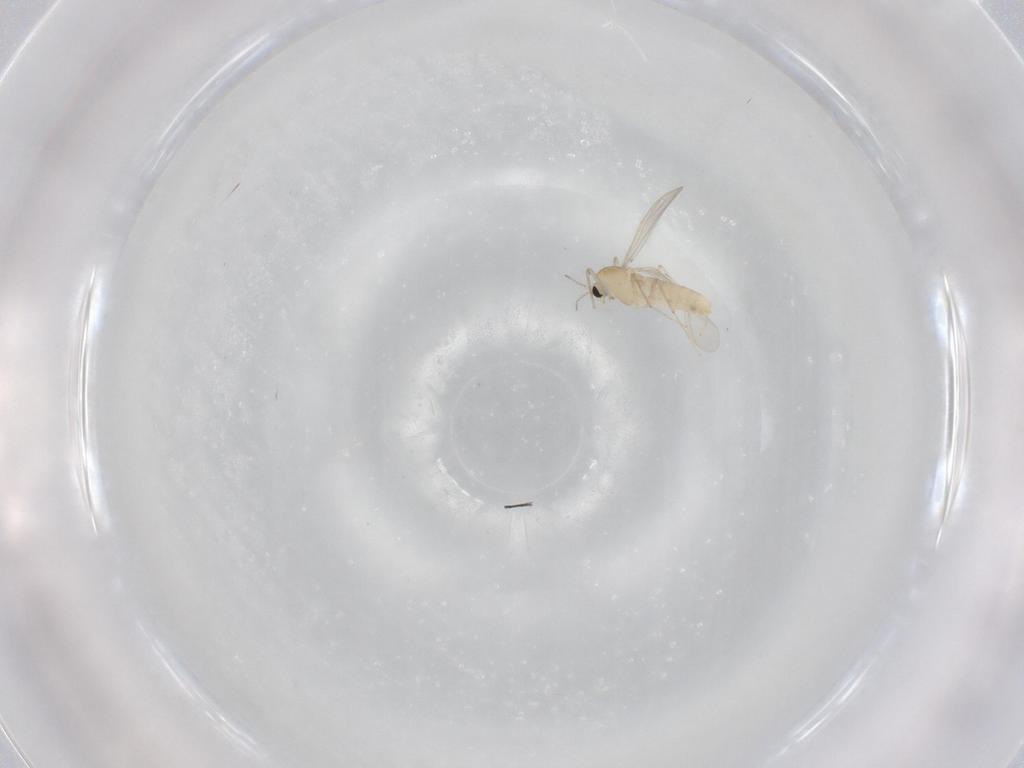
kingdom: Animalia
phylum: Arthropoda
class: Insecta
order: Diptera
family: Chironomidae
